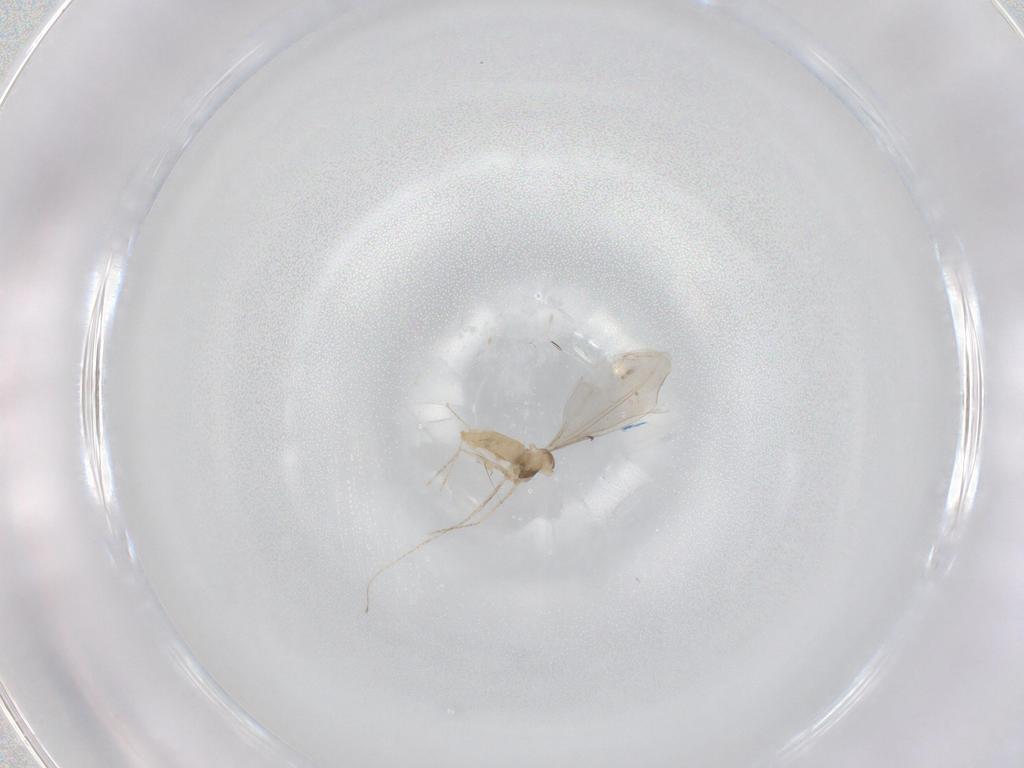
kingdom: Animalia
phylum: Arthropoda
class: Insecta
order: Diptera
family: Cecidomyiidae
